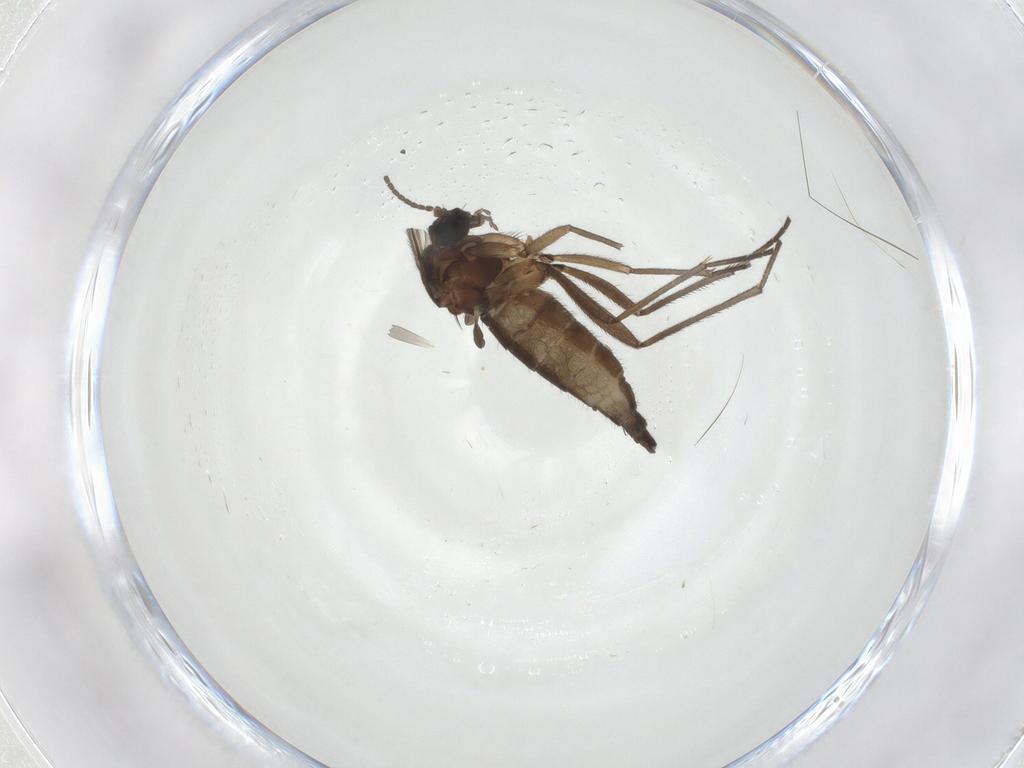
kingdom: Animalia
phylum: Arthropoda
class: Insecta
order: Diptera
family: Sciaridae
